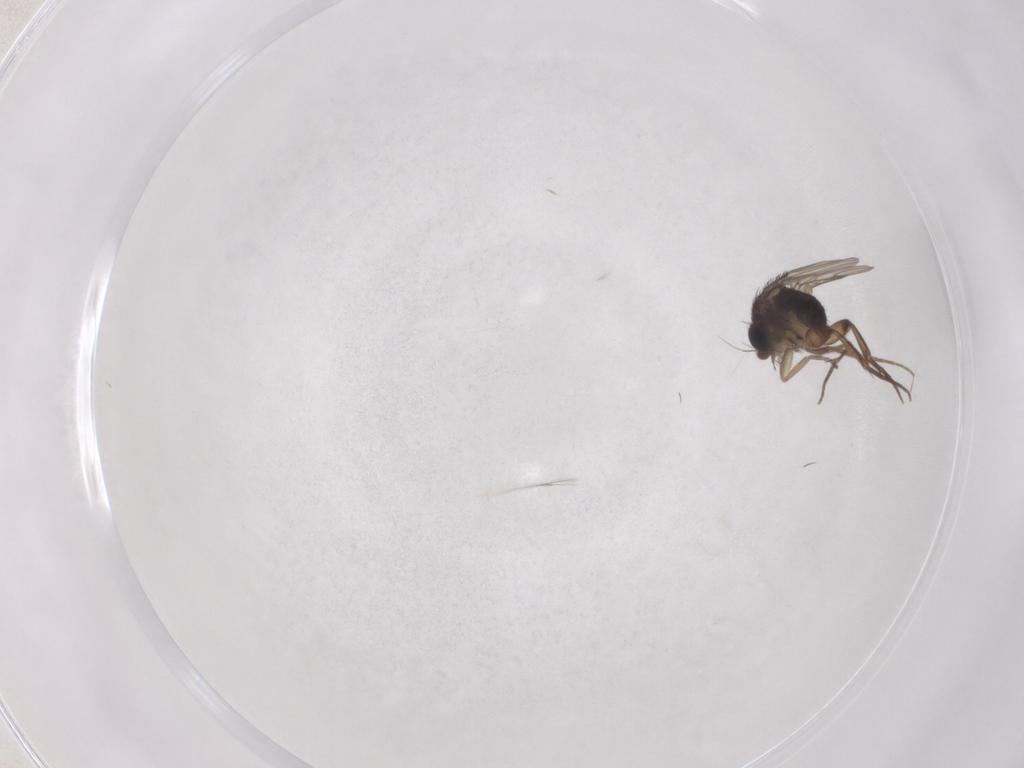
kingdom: Animalia
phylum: Arthropoda
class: Insecta
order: Diptera
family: Phoridae
